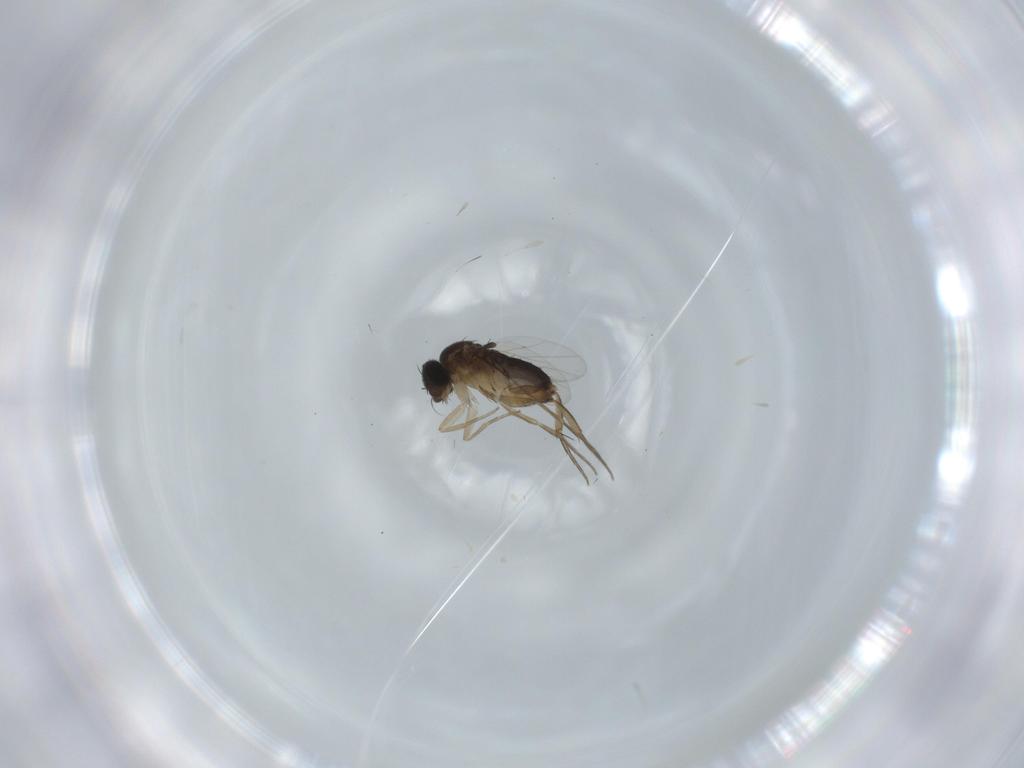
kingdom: Animalia
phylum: Arthropoda
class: Insecta
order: Diptera
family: Phoridae
